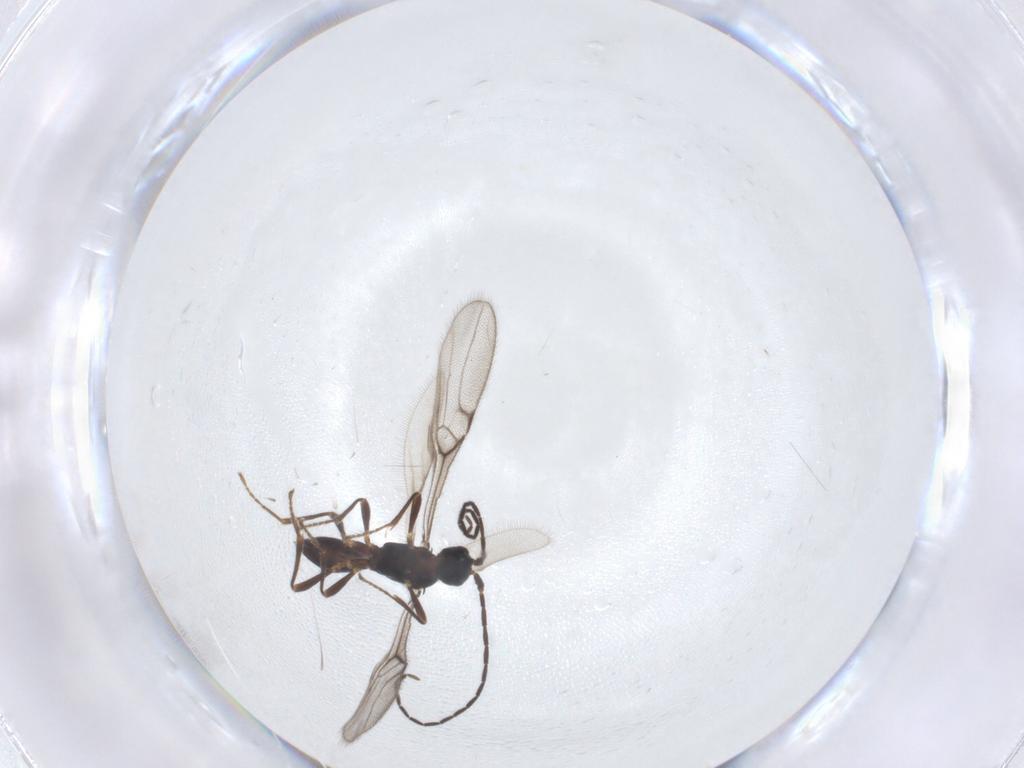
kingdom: Animalia
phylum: Arthropoda
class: Insecta
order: Hymenoptera
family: Braconidae
